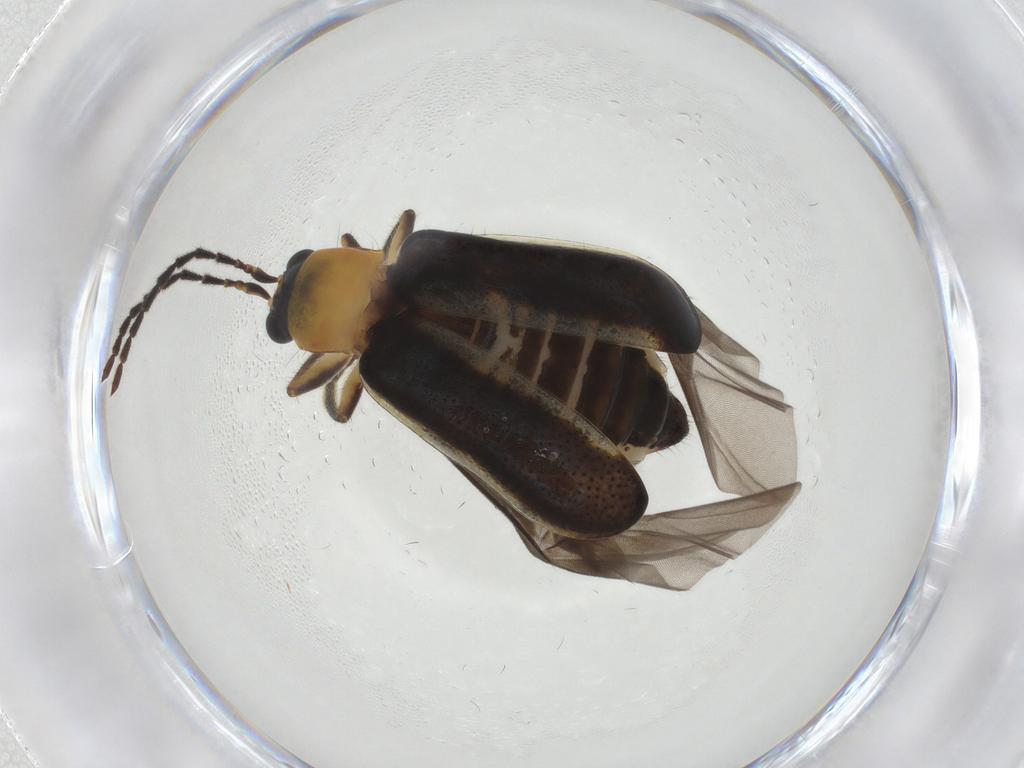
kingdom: Animalia
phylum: Arthropoda
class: Insecta
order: Coleoptera
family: Chrysomelidae
